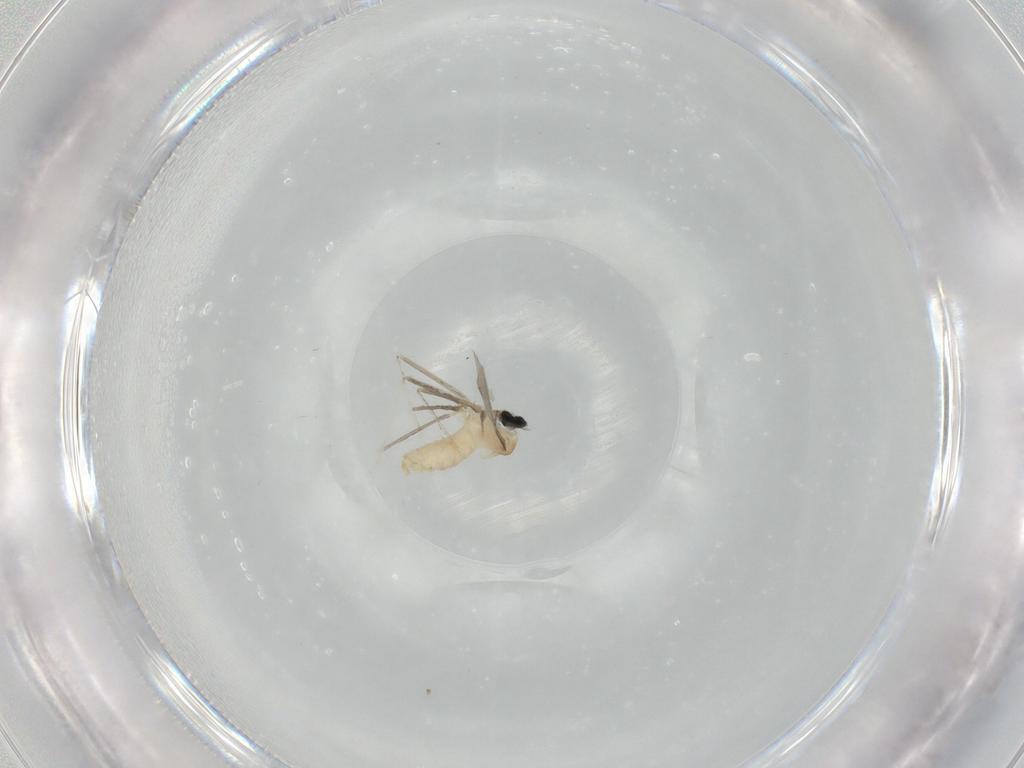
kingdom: Animalia
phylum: Arthropoda
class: Insecta
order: Diptera
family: Cecidomyiidae
